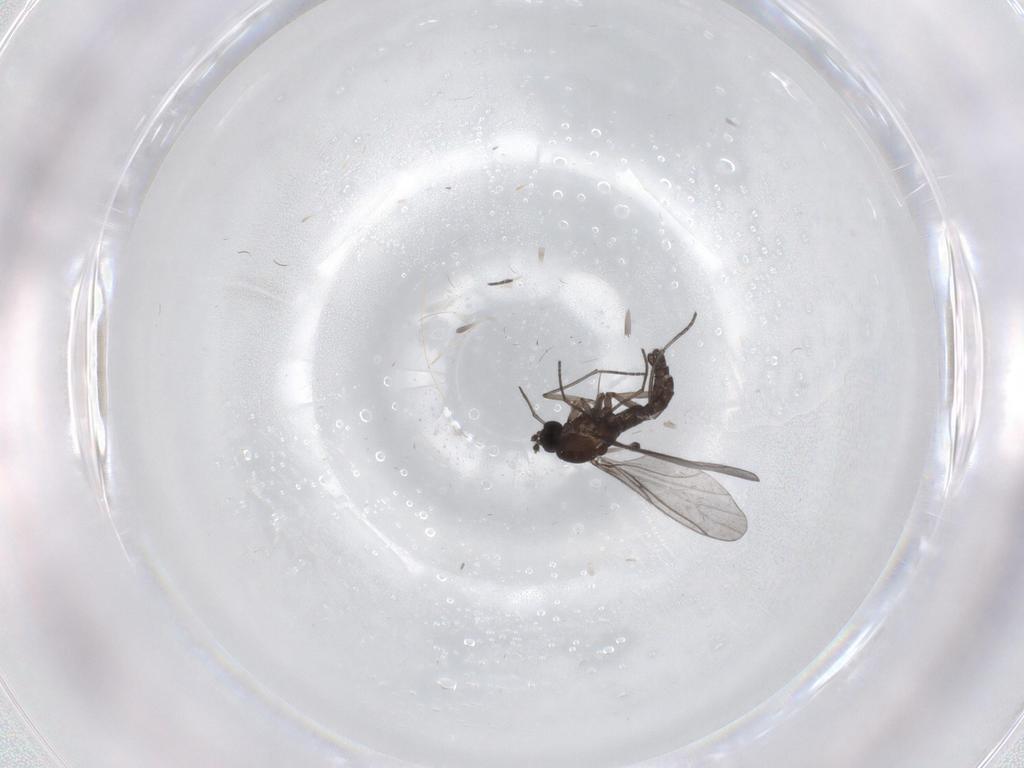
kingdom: Animalia
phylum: Arthropoda
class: Insecta
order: Diptera
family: Sciaridae
